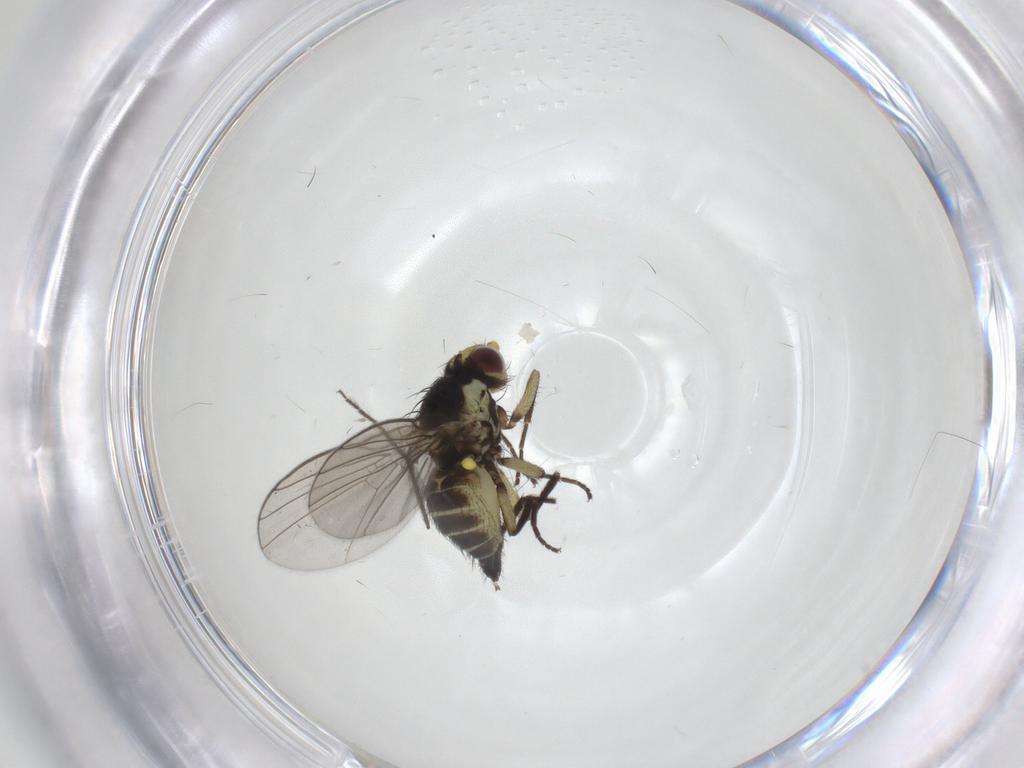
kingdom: Animalia
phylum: Arthropoda
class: Insecta
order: Diptera
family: Agromyzidae
